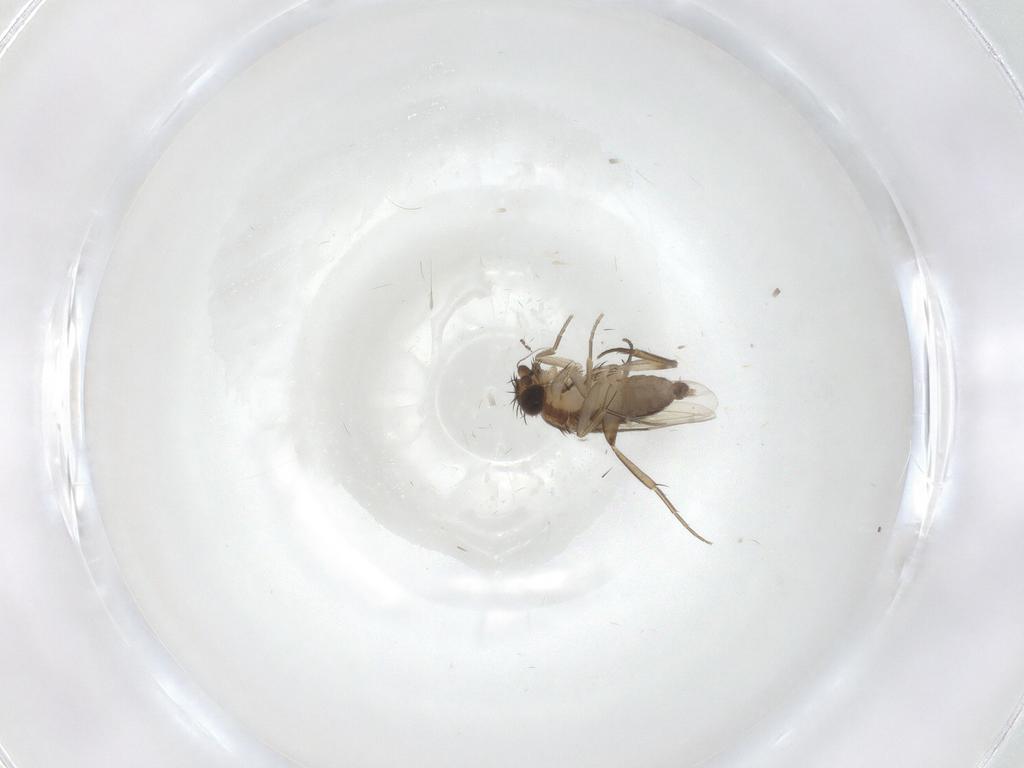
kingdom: Animalia
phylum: Arthropoda
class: Insecta
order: Diptera
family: Phoridae
